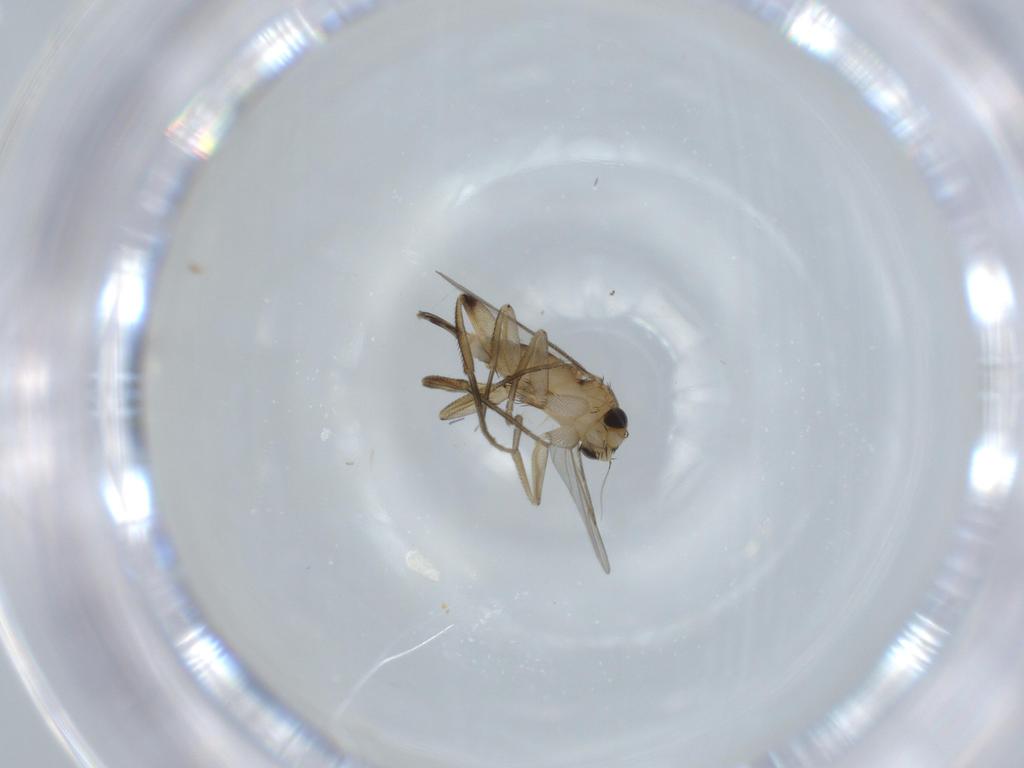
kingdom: Animalia
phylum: Arthropoda
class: Insecta
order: Diptera
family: Phoridae
